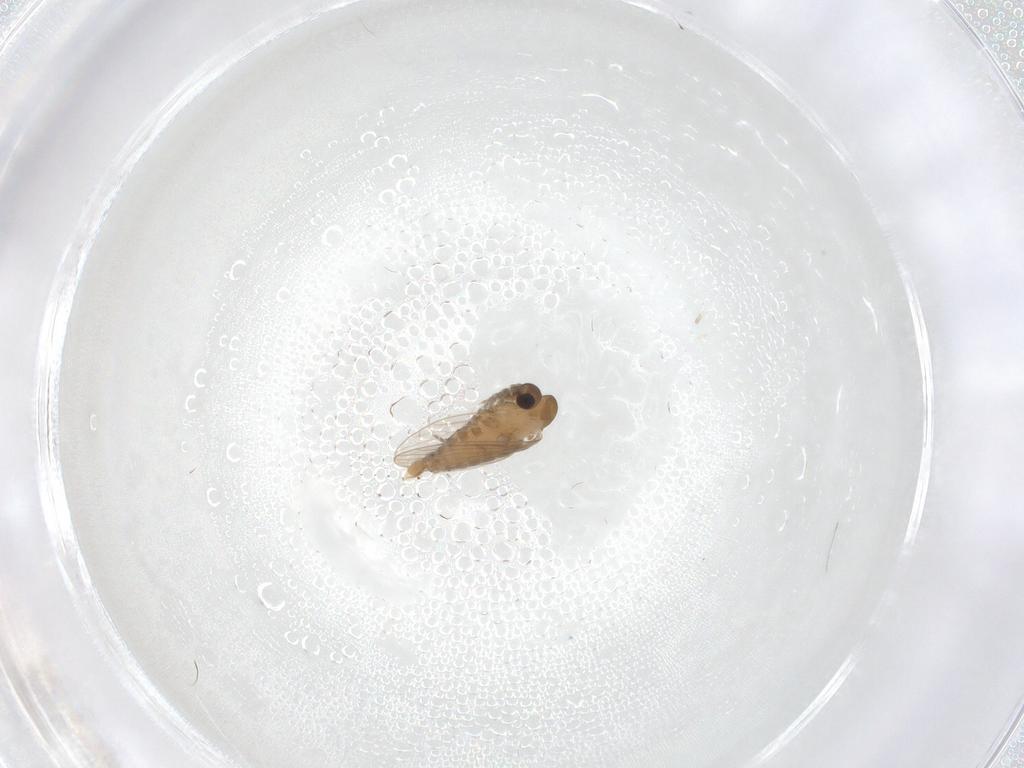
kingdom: Animalia
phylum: Arthropoda
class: Insecta
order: Diptera
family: Psychodidae
